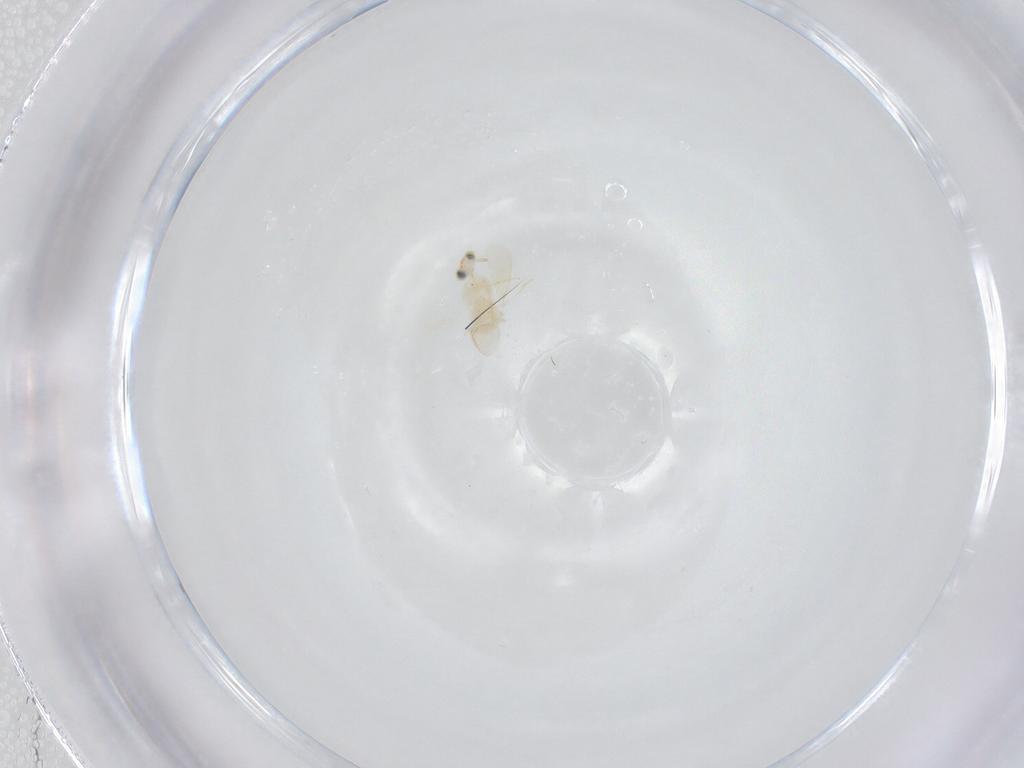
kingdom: Animalia
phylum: Arthropoda
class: Insecta
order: Hymenoptera
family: Aphelinidae
